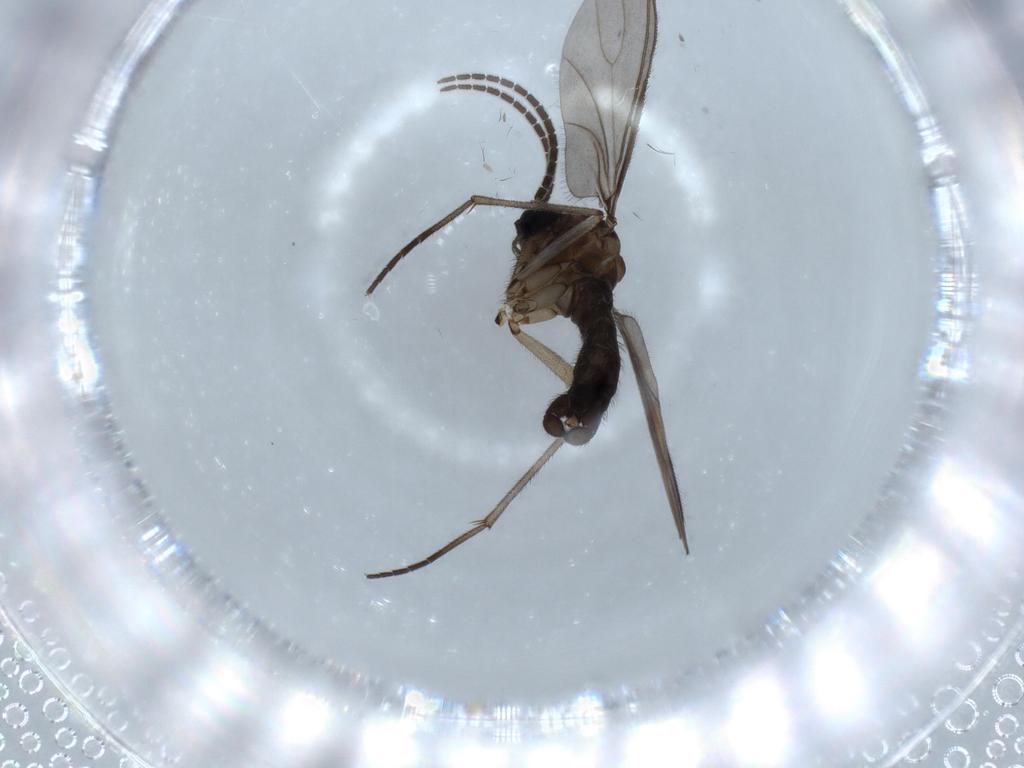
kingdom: Animalia
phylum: Arthropoda
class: Insecta
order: Diptera
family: Sciaridae
